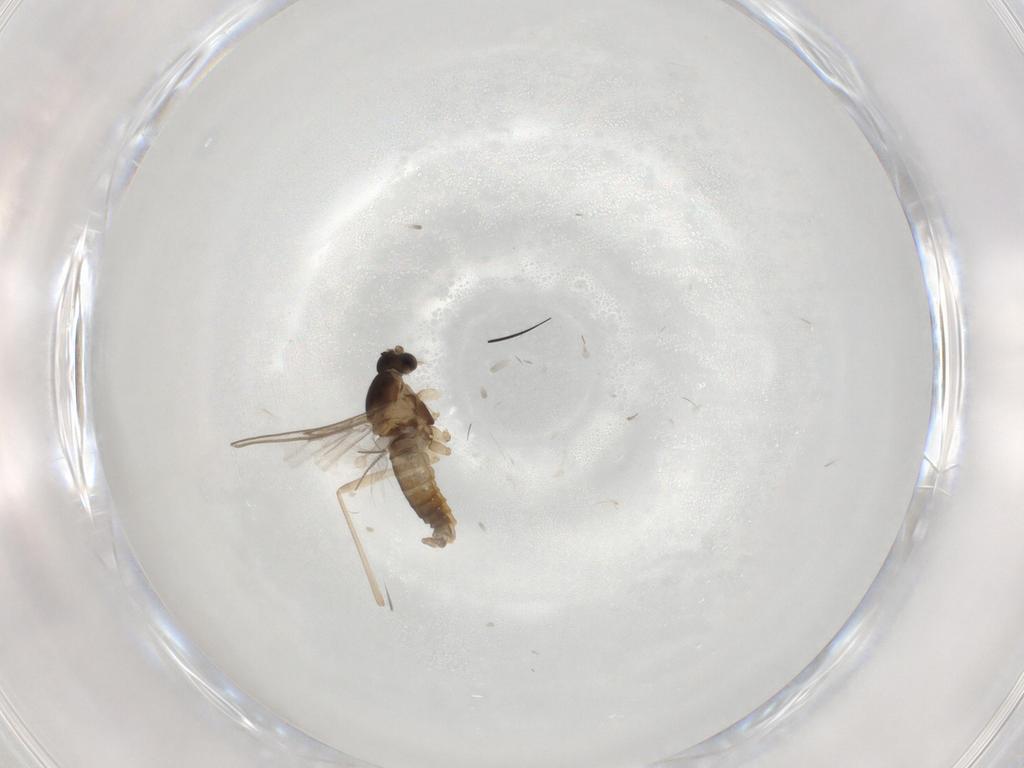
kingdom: Animalia
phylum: Arthropoda
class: Insecta
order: Diptera
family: Chironomidae
